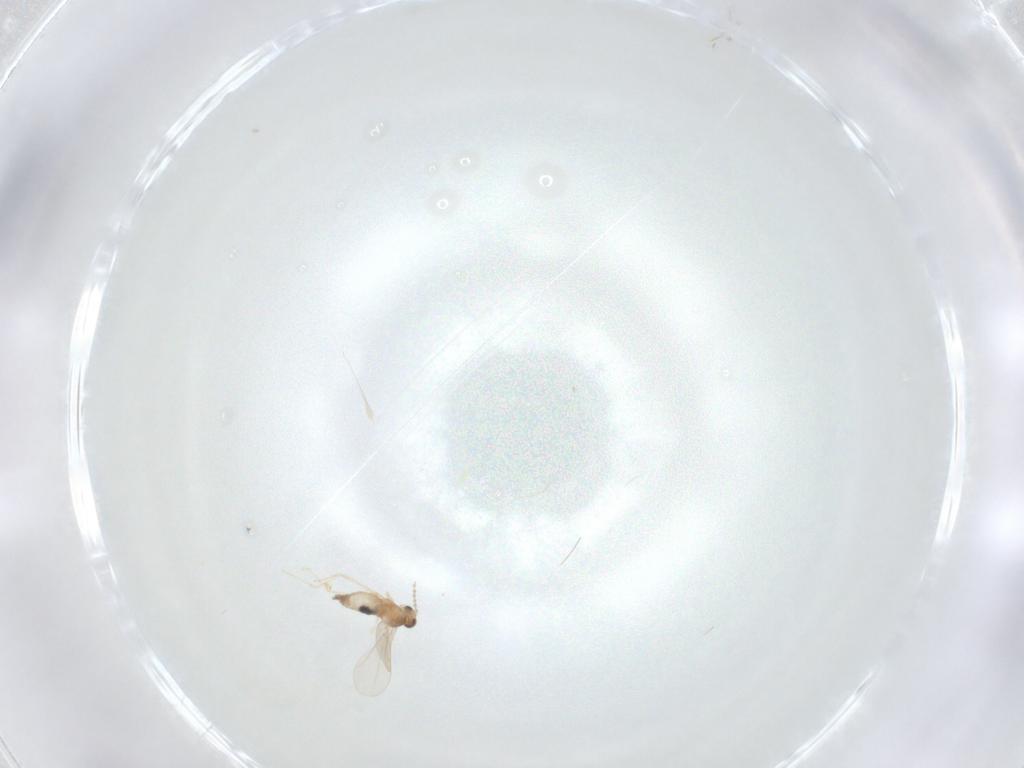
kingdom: Animalia
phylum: Arthropoda
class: Insecta
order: Diptera
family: Cecidomyiidae
